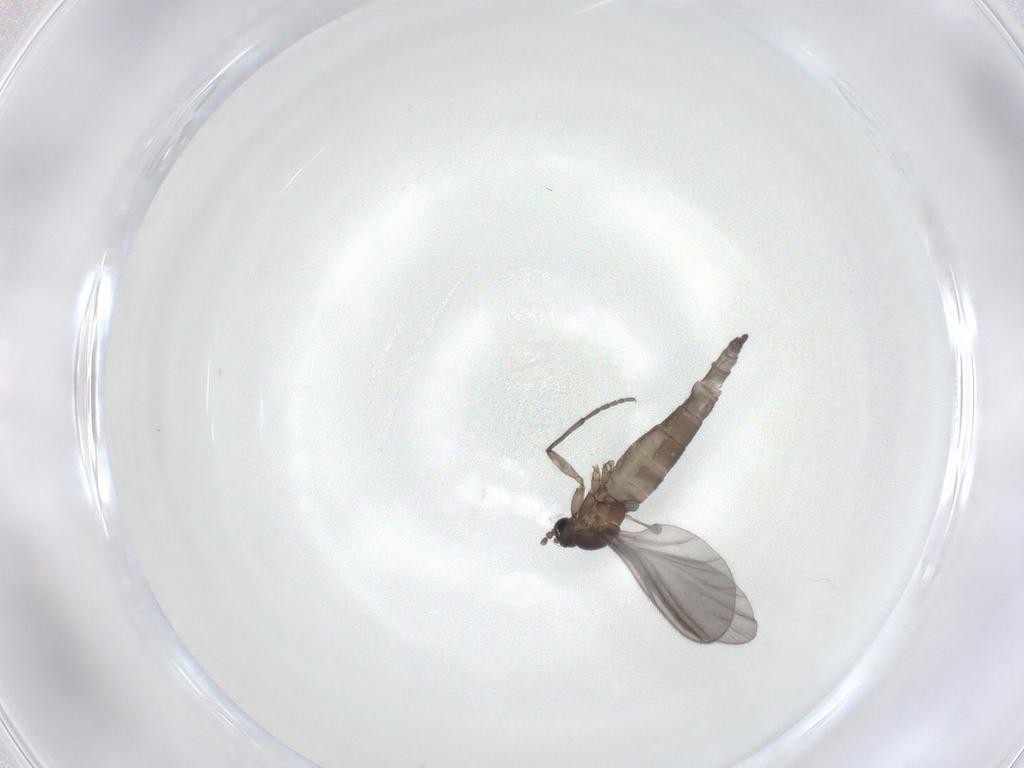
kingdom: Animalia
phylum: Arthropoda
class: Insecta
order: Diptera
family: Sciaridae
